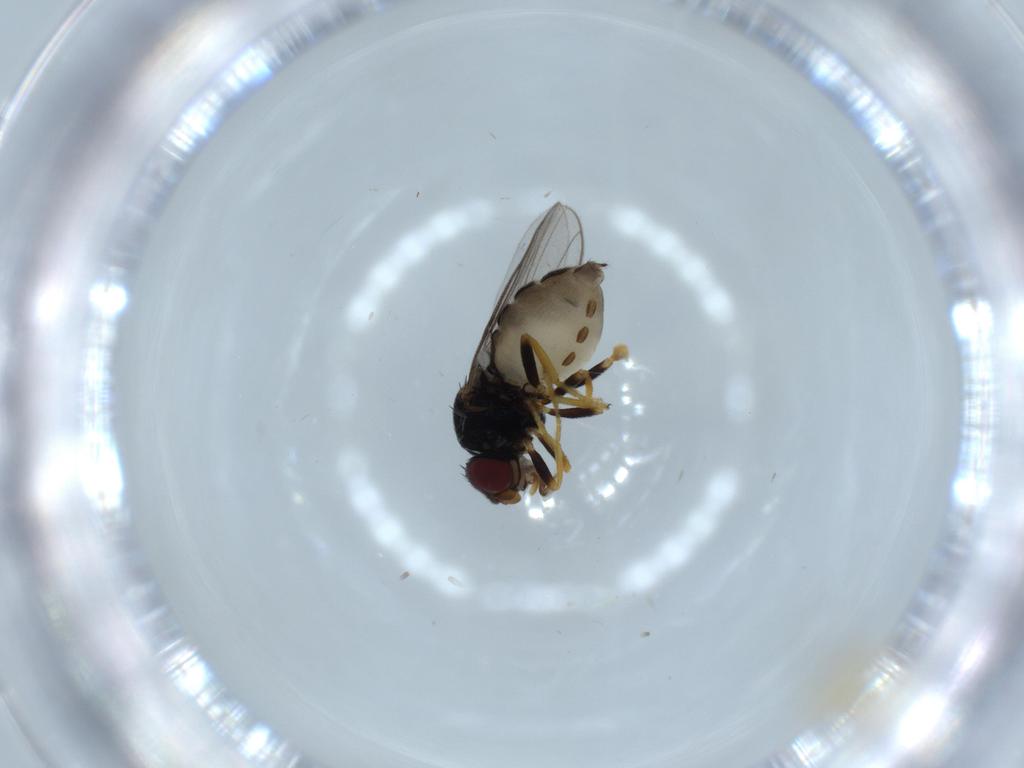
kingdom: Animalia
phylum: Arthropoda
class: Insecta
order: Diptera
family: Chironomidae
